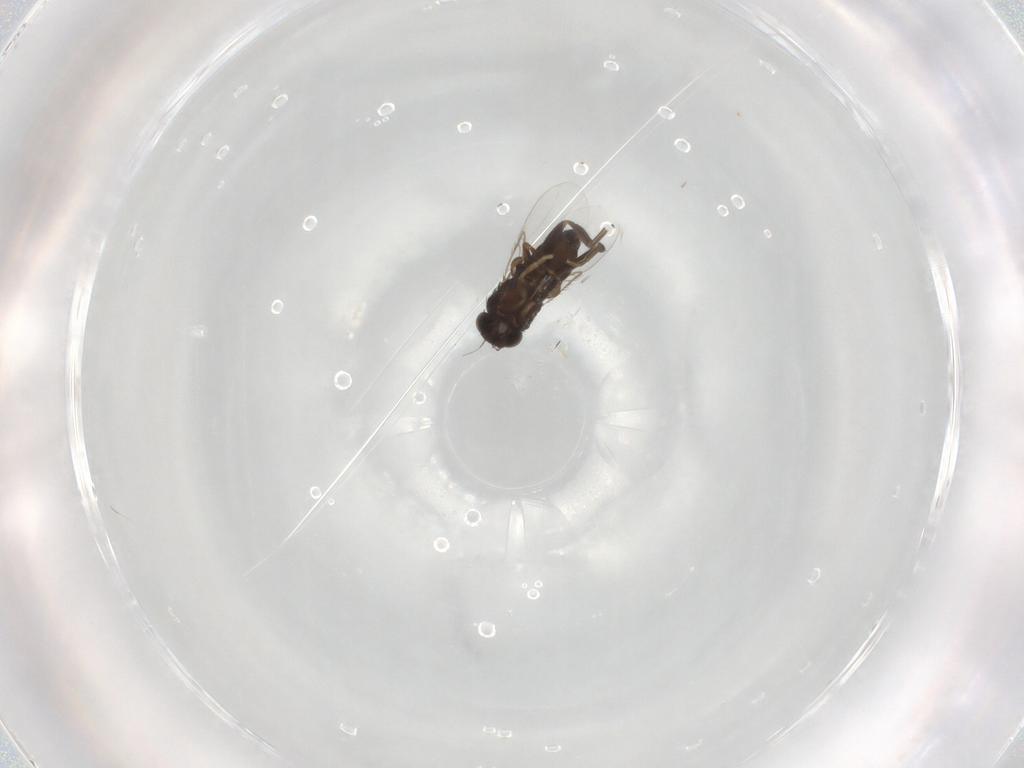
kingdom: Animalia
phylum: Arthropoda
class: Insecta
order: Diptera
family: Phoridae
